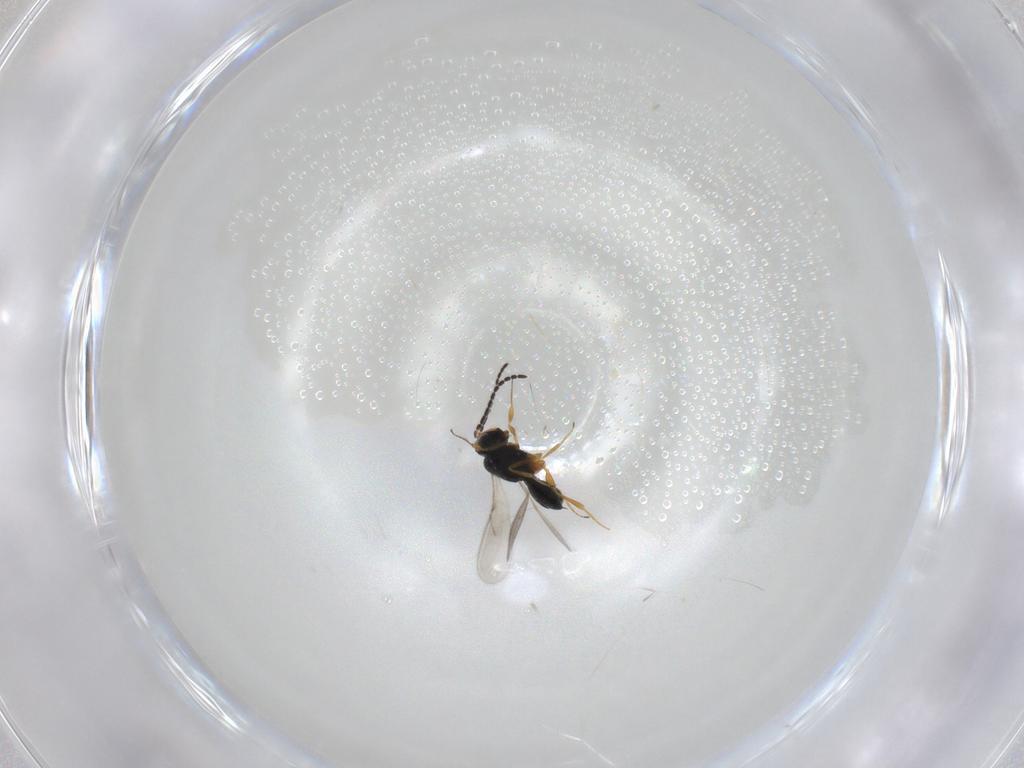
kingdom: Animalia
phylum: Arthropoda
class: Insecta
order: Hymenoptera
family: Scelionidae
